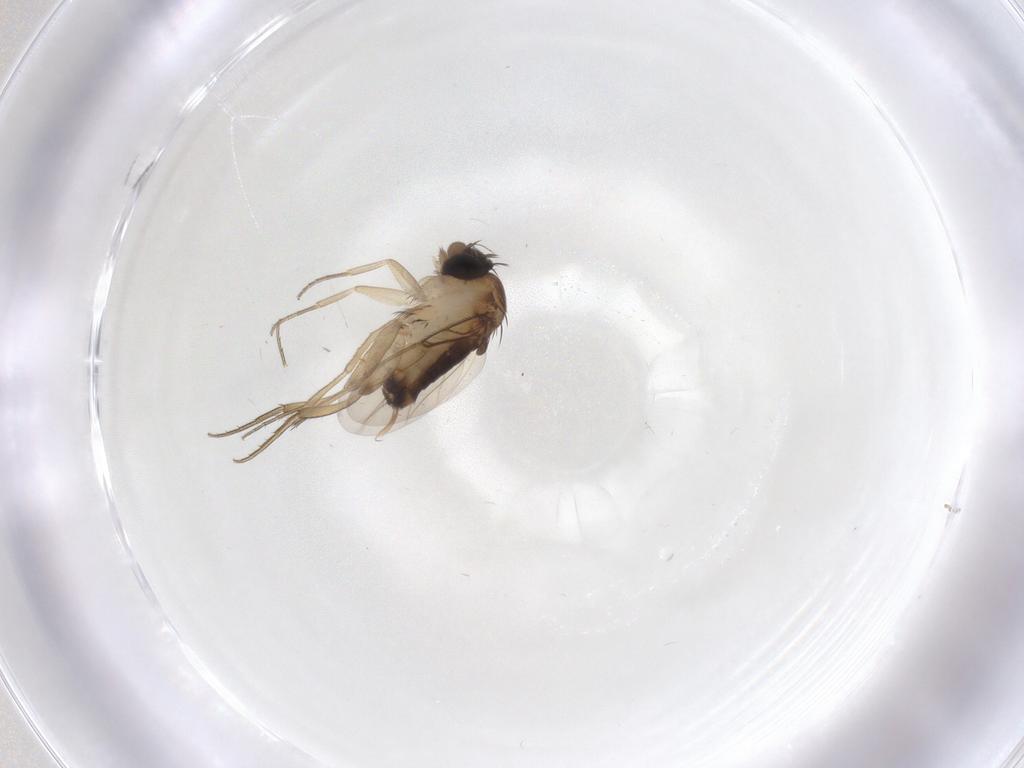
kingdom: Animalia
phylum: Arthropoda
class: Insecta
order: Diptera
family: Phoridae
